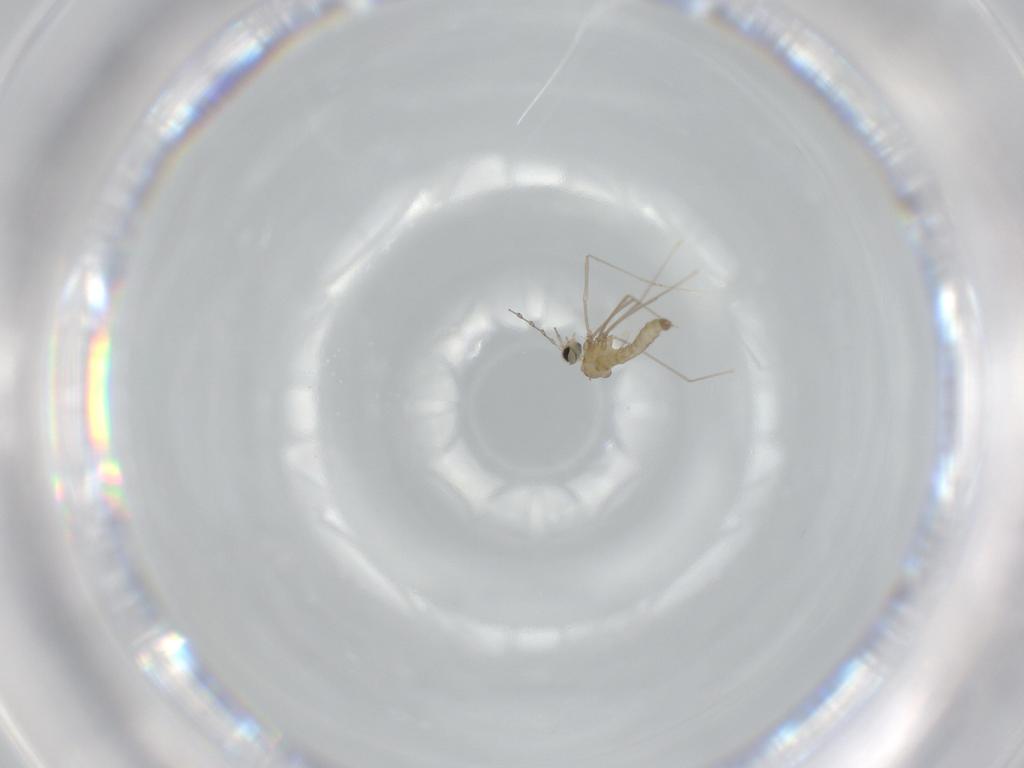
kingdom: Animalia
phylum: Arthropoda
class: Insecta
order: Diptera
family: Cecidomyiidae
